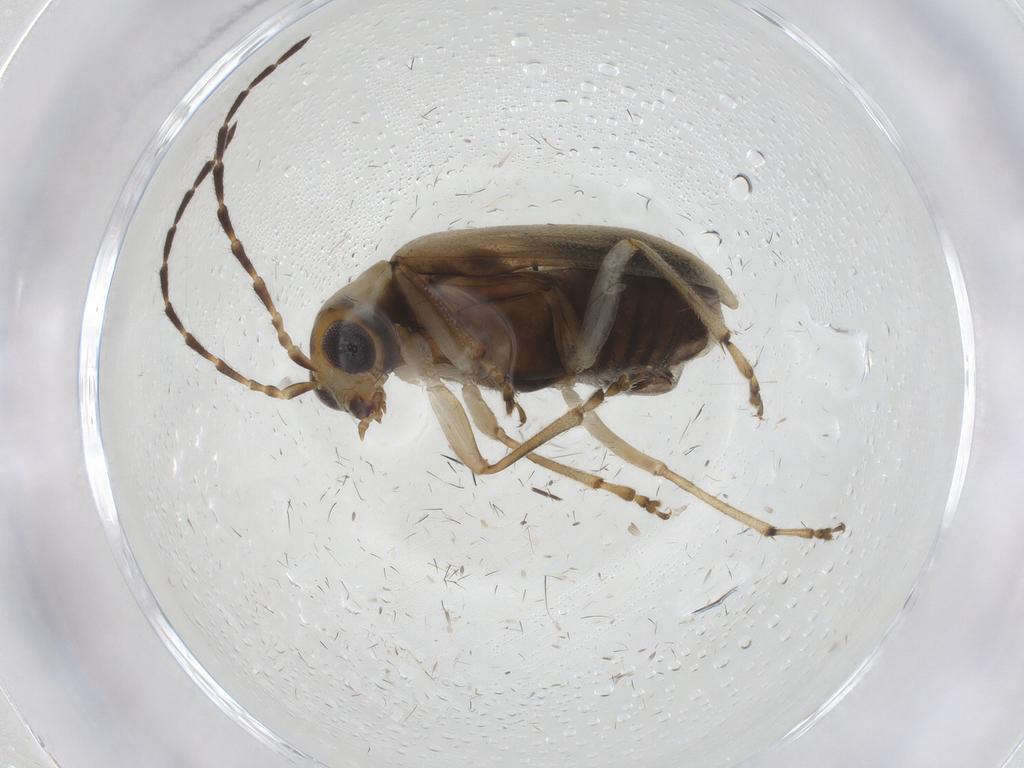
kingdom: Animalia
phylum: Arthropoda
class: Insecta
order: Coleoptera
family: Chrysomelidae
